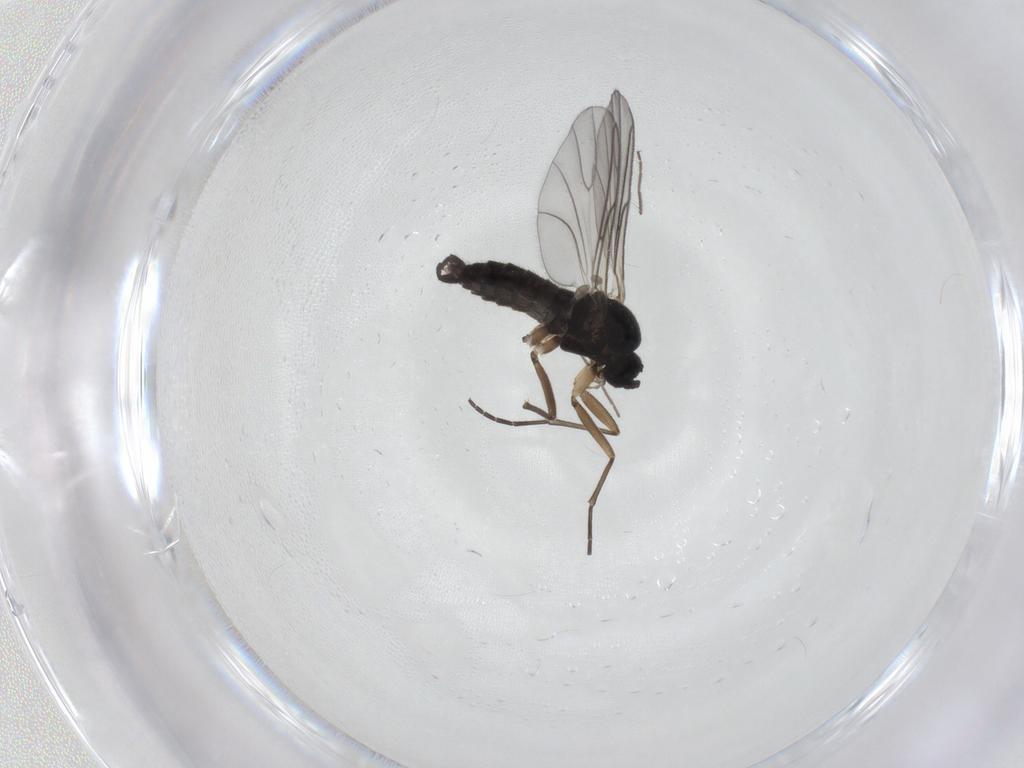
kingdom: Animalia
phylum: Arthropoda
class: Insecta
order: Diptera
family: Sciaridae
